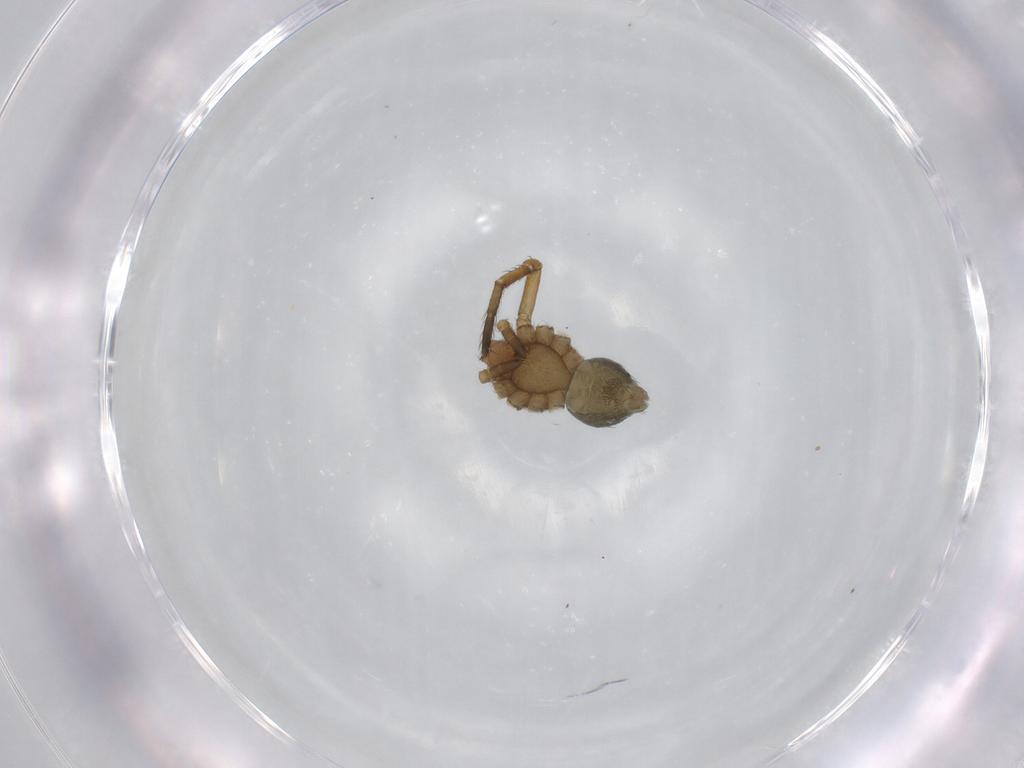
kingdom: Animalia
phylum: Arthropoda
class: Arachnida
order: Araneae
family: Thomisidae
